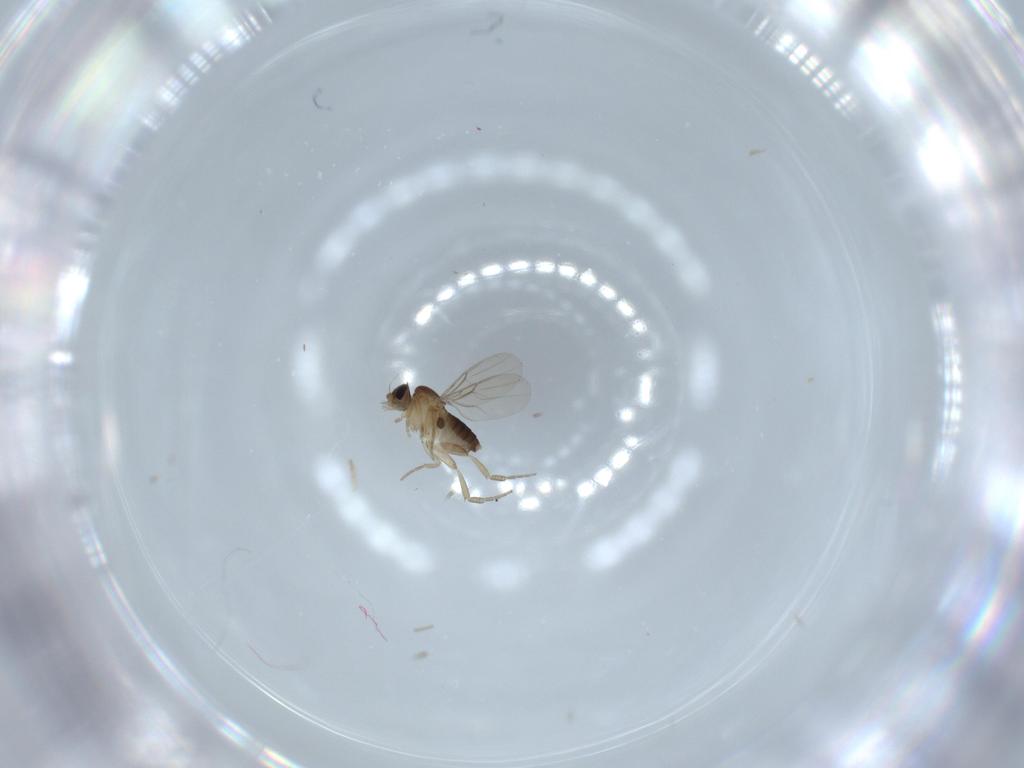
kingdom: Animalia
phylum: Arthropoda
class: Insecta
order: Diptera
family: Phoridae
